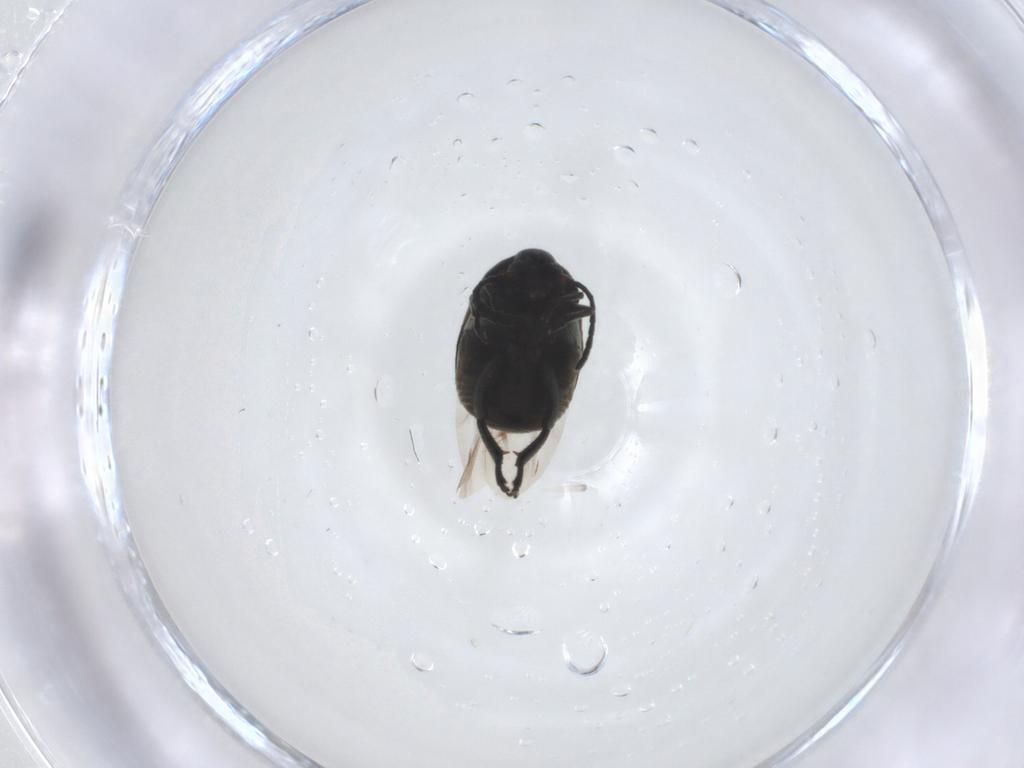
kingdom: Animalia
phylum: Arthropoda
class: Insecta
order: Coleoptera
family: Chrysomelidae
